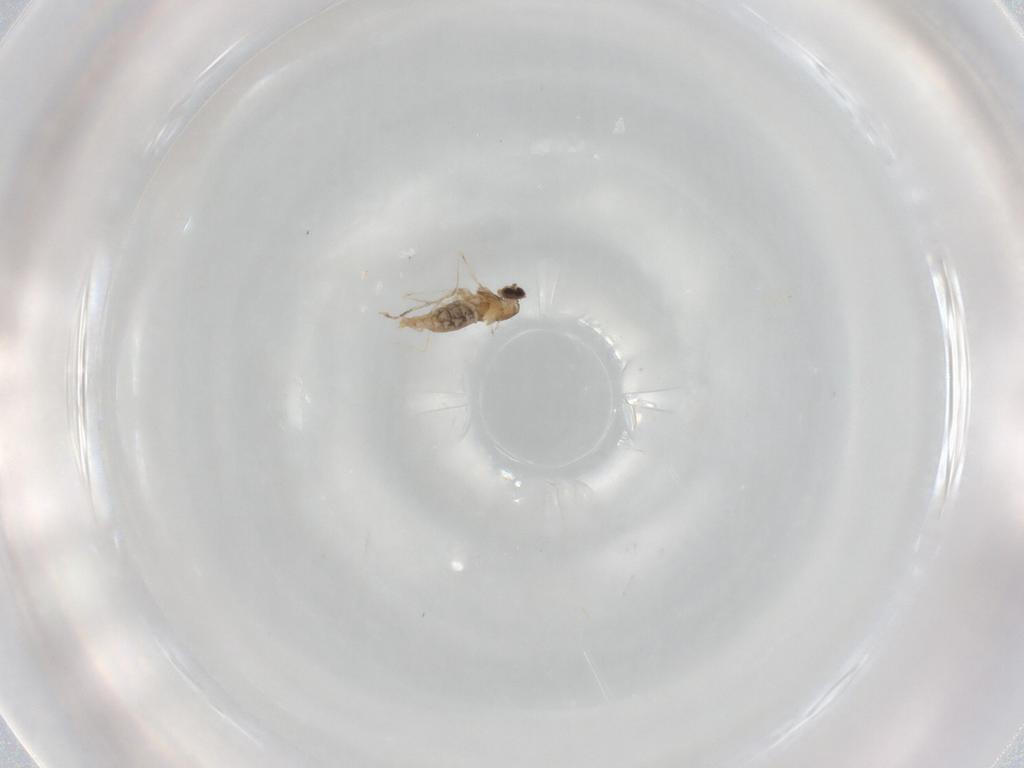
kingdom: Animalia
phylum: Arthropoda
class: Insecta
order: Diptera
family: Cecidomyiidae
